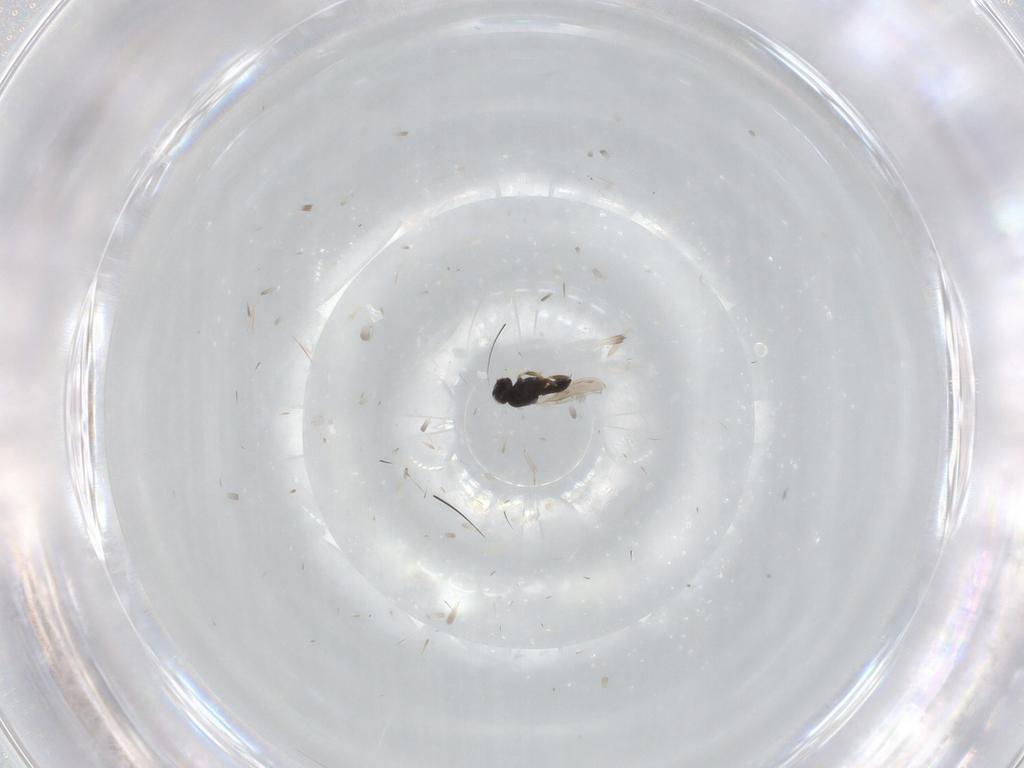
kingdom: Animalia
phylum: Arthropoda
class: Insecta
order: Hymenoptera
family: Scelionidae
